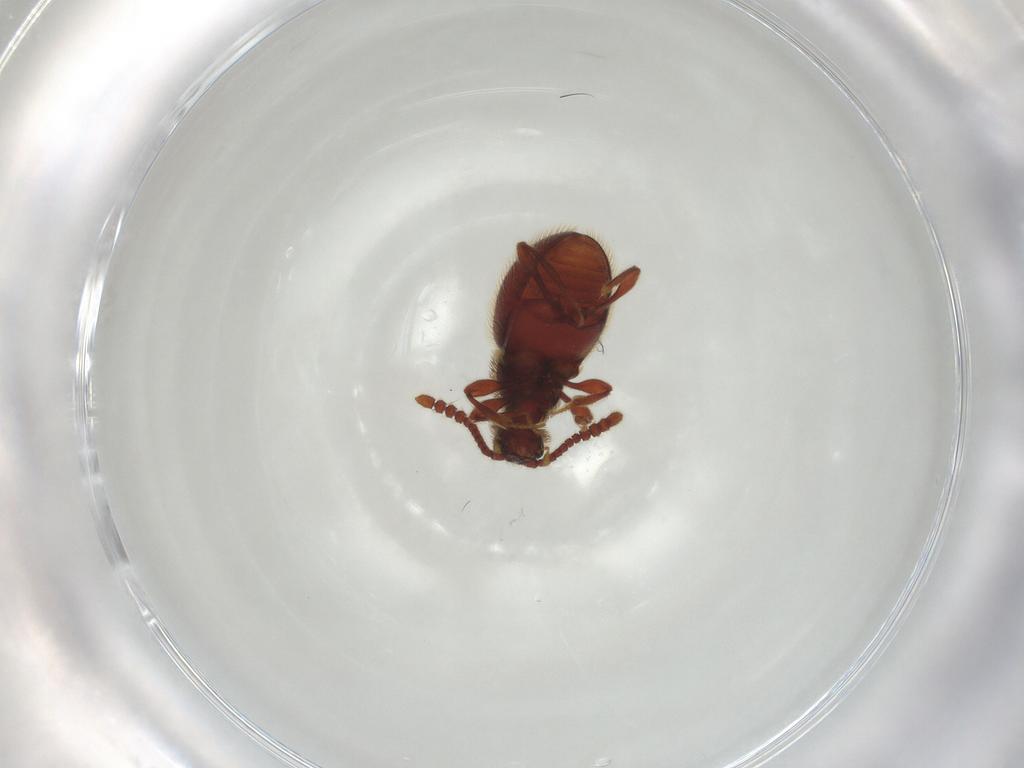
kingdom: Animalia
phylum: Arthropoda
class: Insecta
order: Coleoptera
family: Staphylinidae
